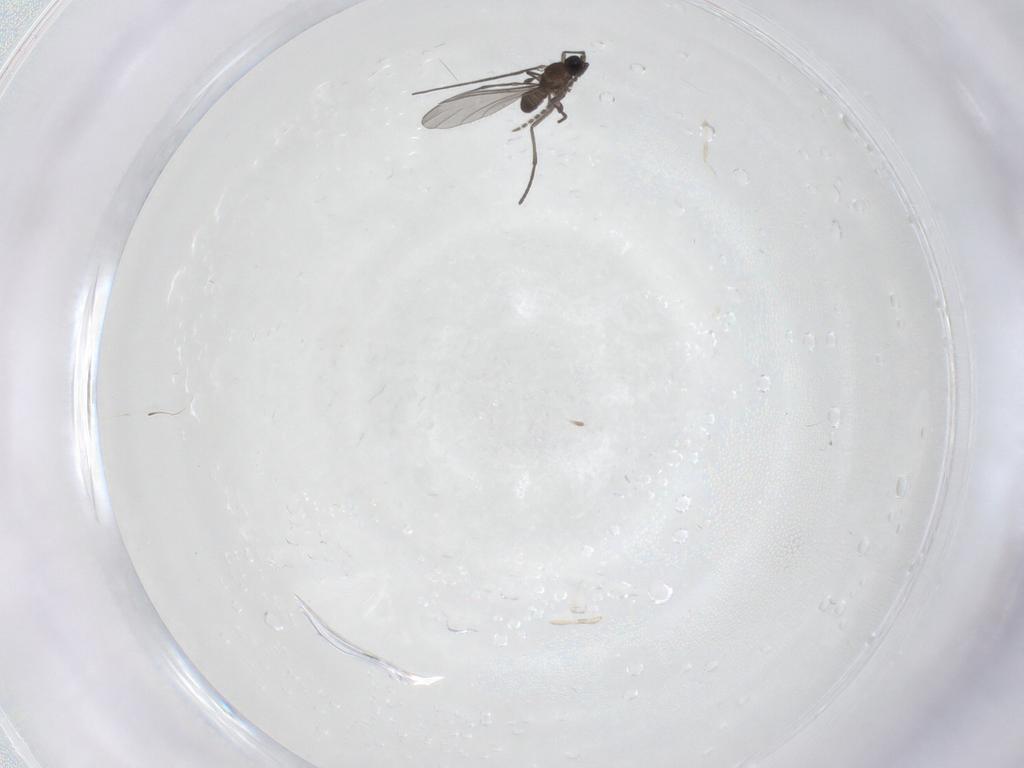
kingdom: Animalia
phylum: Arthropoda
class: Insecta
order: Diptera
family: Sciaridae
